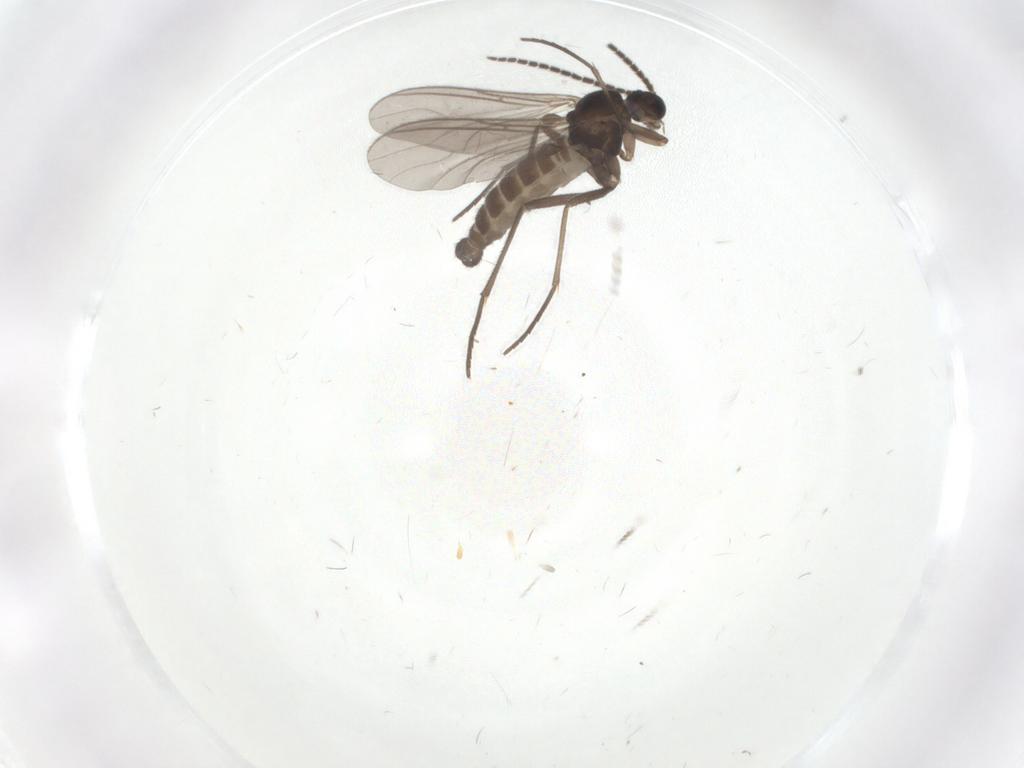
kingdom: Animalia
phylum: Arthropoda
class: Insecta
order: Diptera
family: Sciaridae
